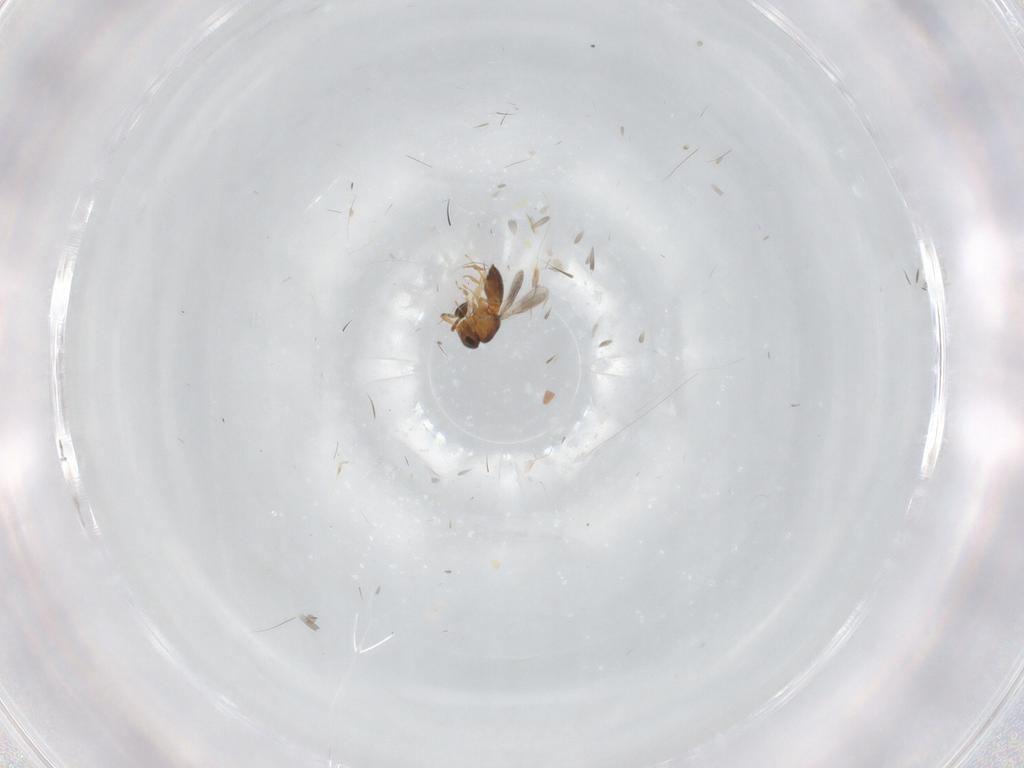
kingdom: Animalia
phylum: Arthropoda
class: Insecta
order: Hymenoptera
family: Scelionidae
